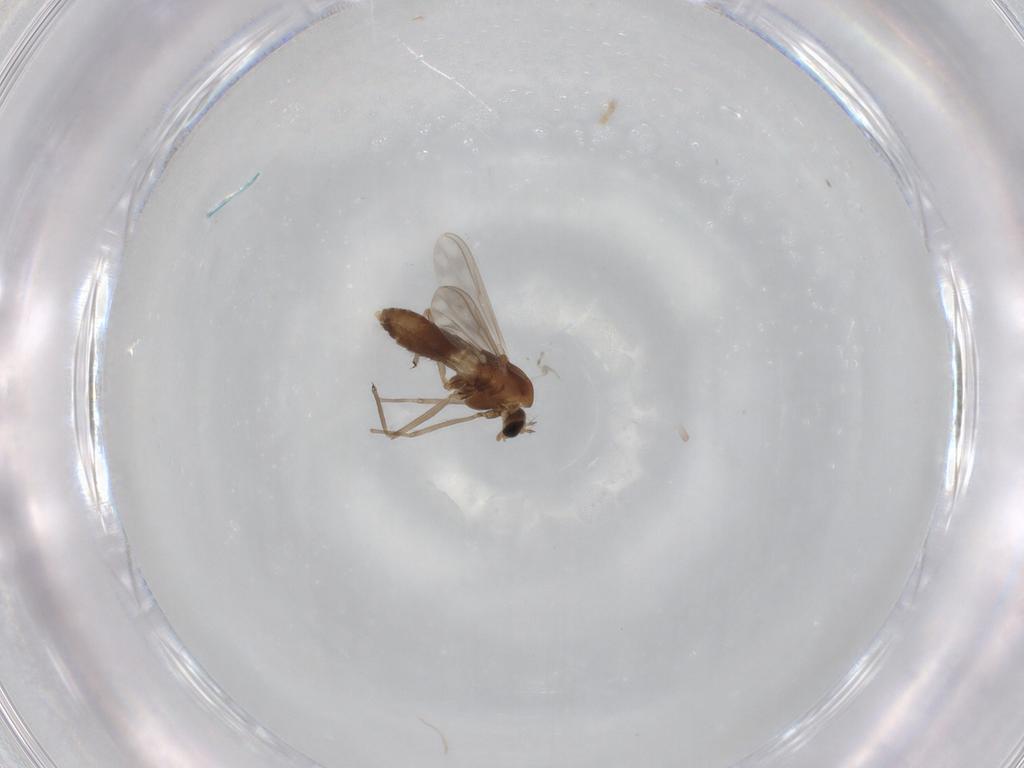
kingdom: Animalia
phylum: Arthropoda
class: Insecta
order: Diptera
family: Chironomidae
